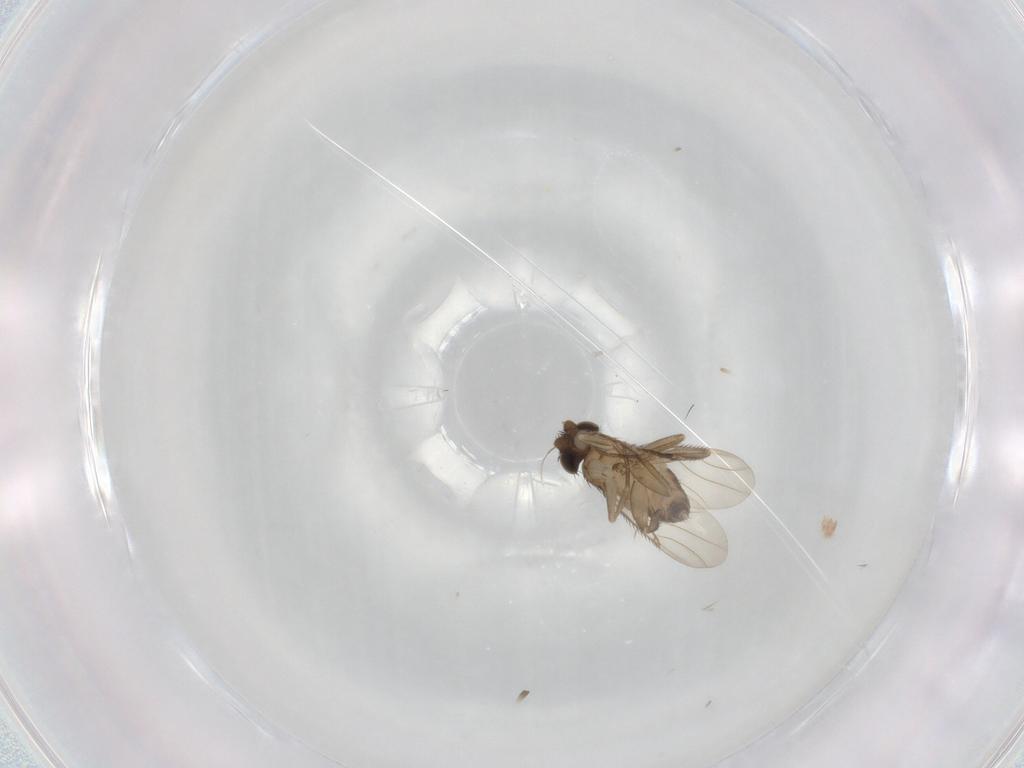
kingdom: Animalia
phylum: Arthropoda
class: Insecta
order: Diptera
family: Phoridae
